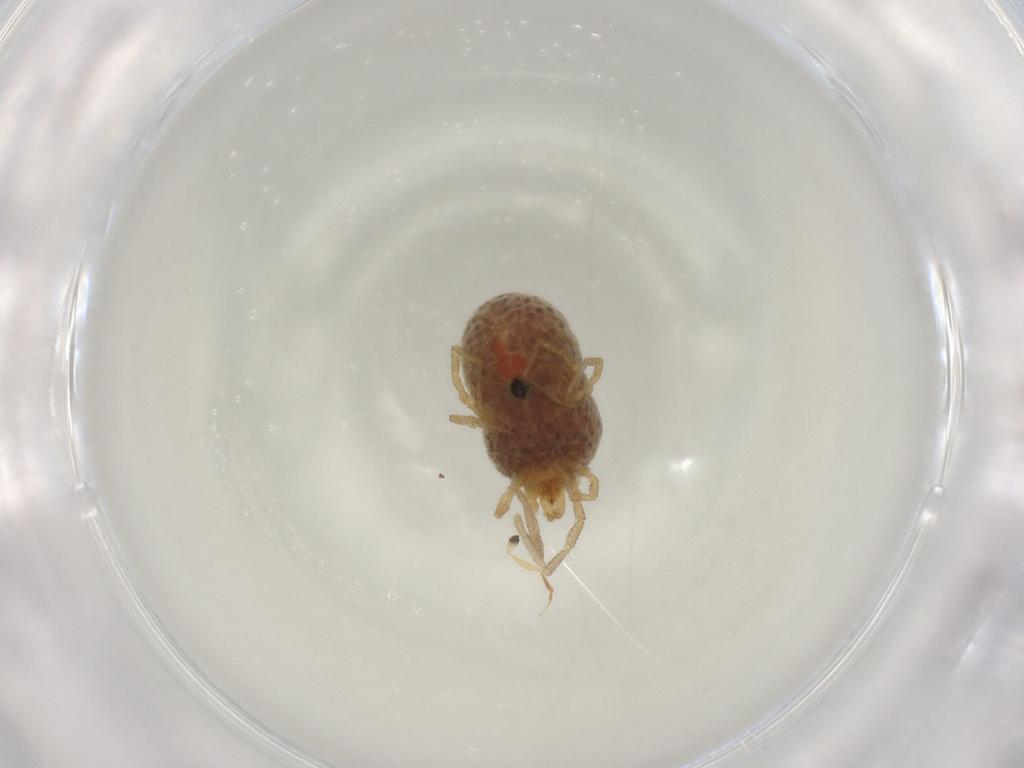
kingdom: Animalia
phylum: Arthropoda
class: Arachnida
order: Trombidiformes
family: Erythraeidae
